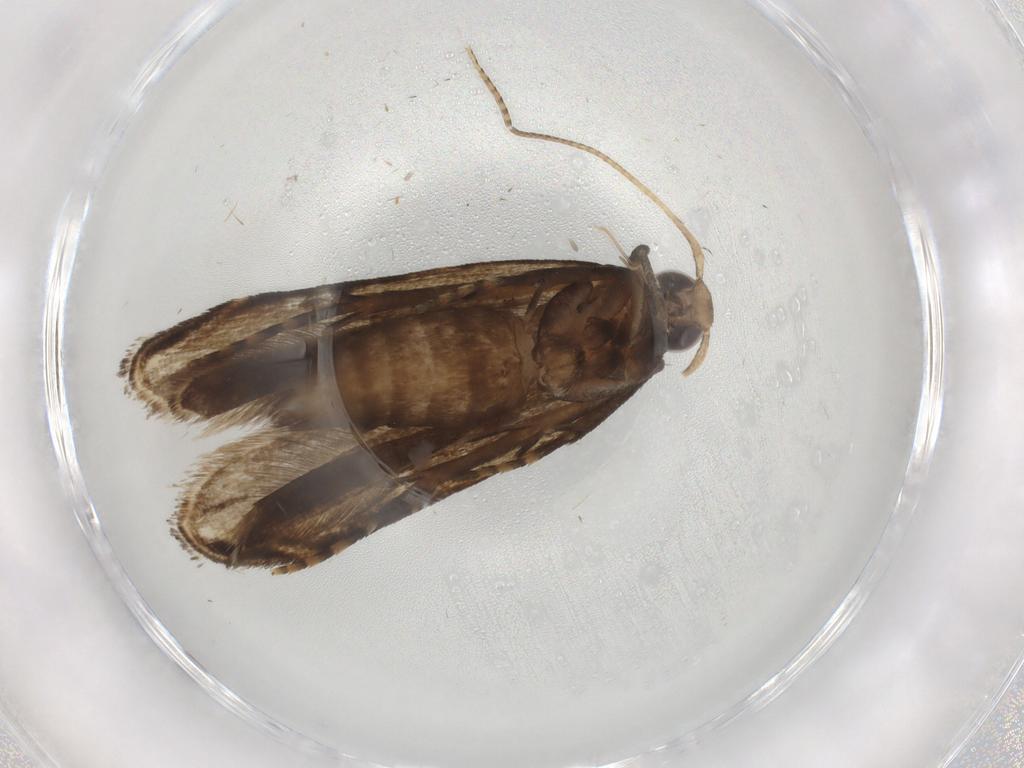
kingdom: Animalia
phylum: Arthropoda
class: Insecta
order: Lepidoptera
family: Gelechiidae
